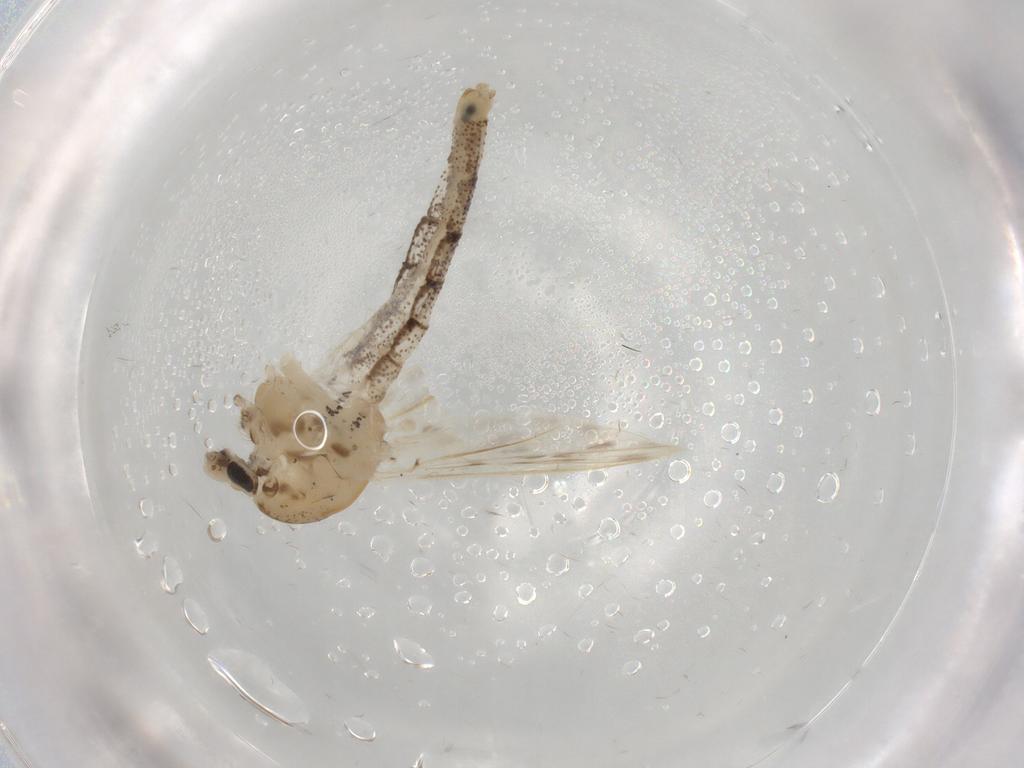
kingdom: Animalia
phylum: Arthropoda
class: Insecta
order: Diptera
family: Chaoboridae
